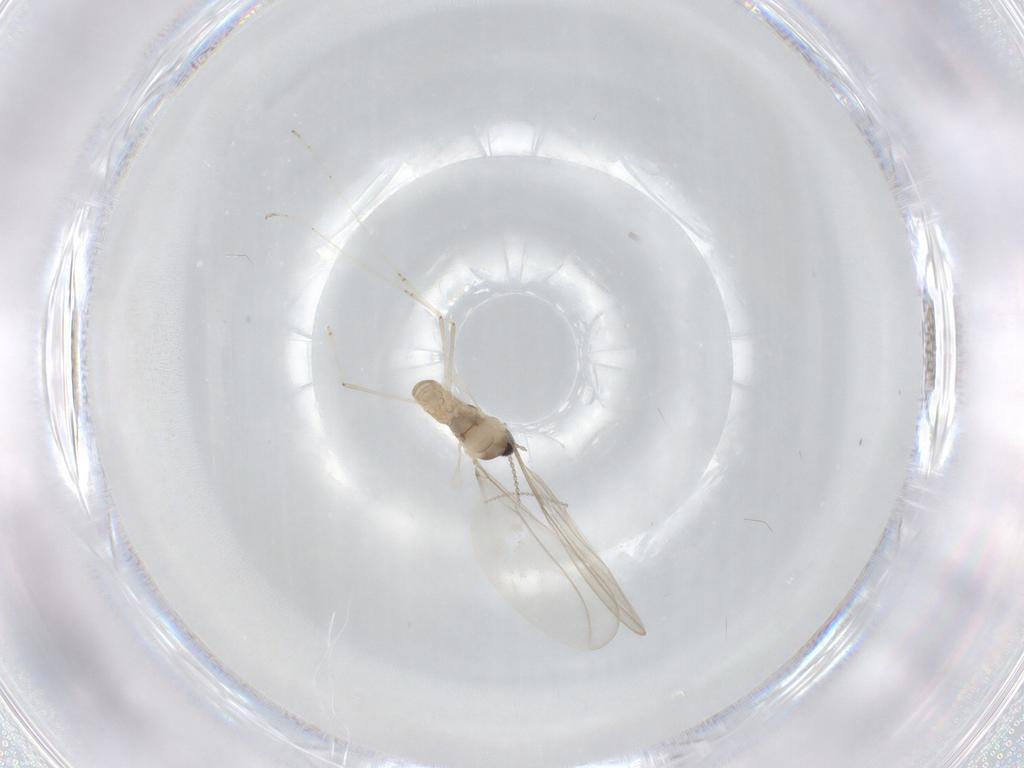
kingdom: Animalia
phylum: Arthropoda
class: Insecta
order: Diptera
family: Cecidomyiidae
